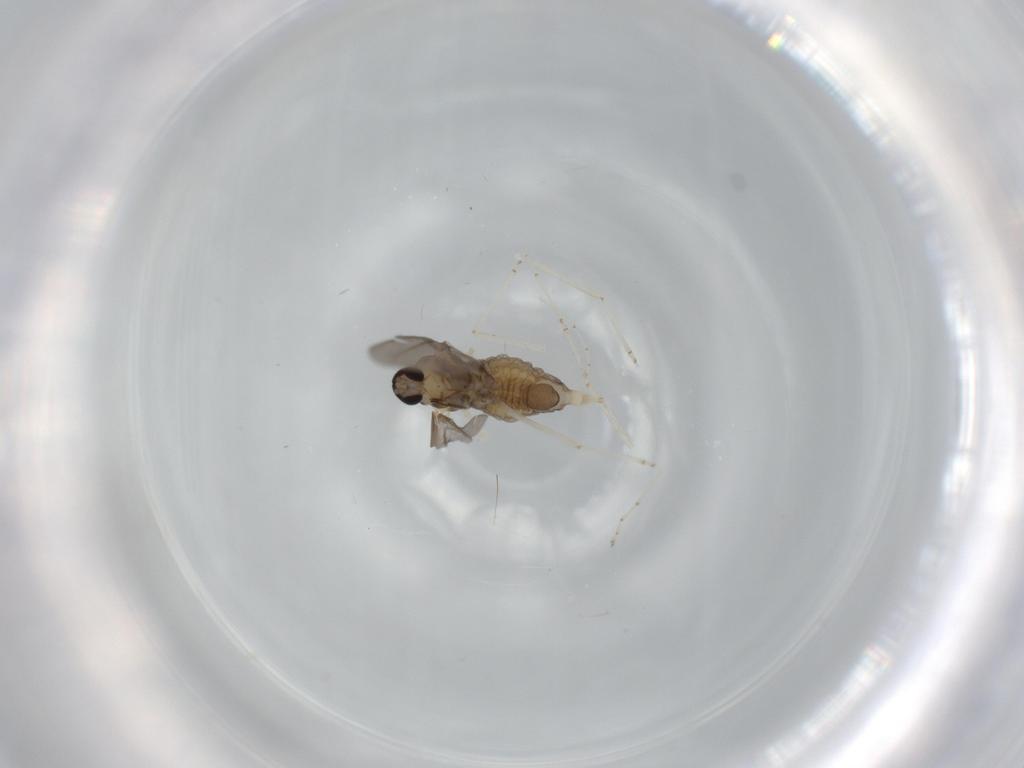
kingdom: Animalia
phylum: Arthropoda
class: Insecta
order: Diptera
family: Cecidomyiidae
